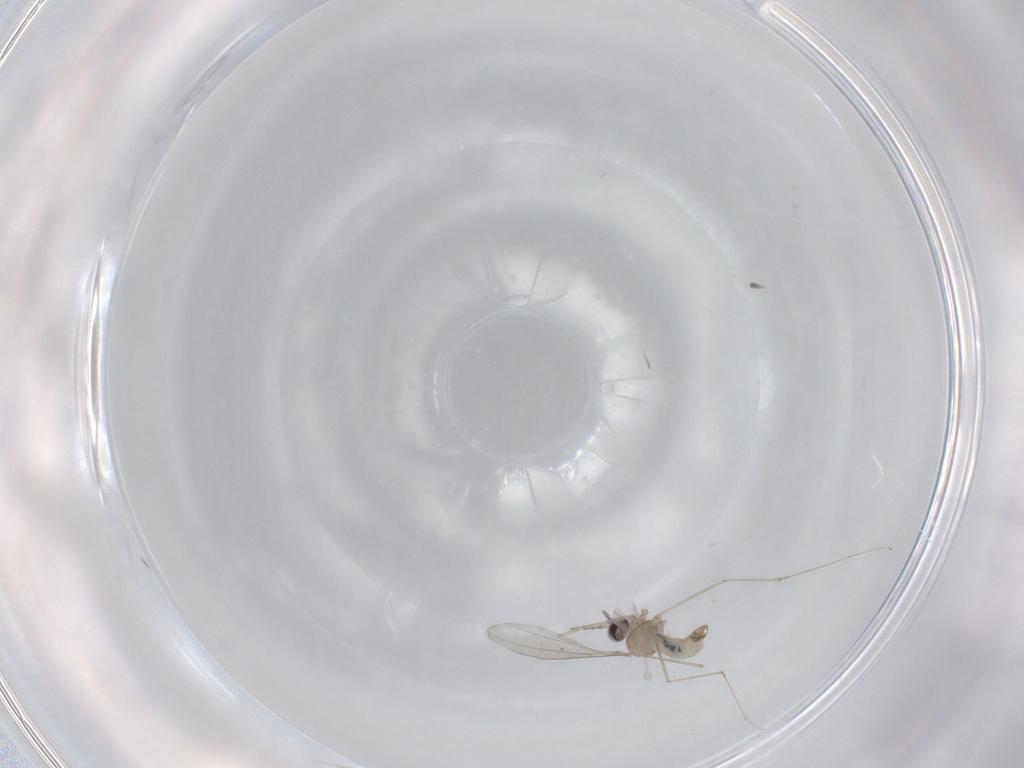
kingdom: Animalia
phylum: Arthropoda
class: Insecta
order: Diptera
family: Cecidomyiidae
